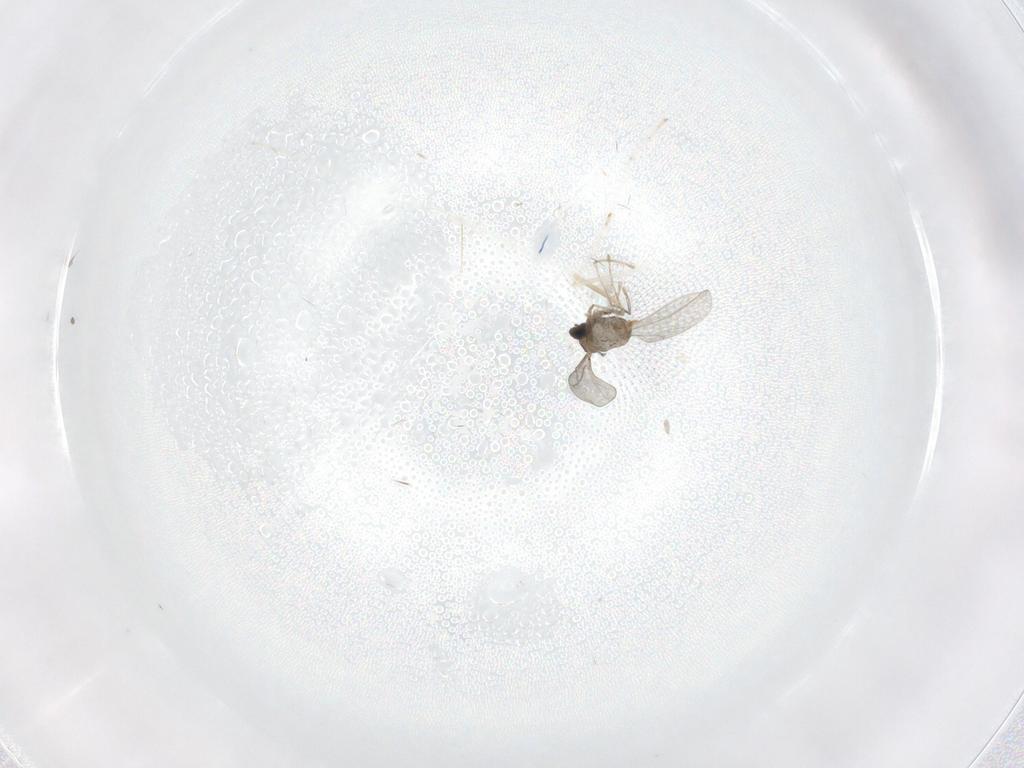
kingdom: Animalia
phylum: Arthropoda
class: Insecta
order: Diptera
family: Cecidomyiidae
